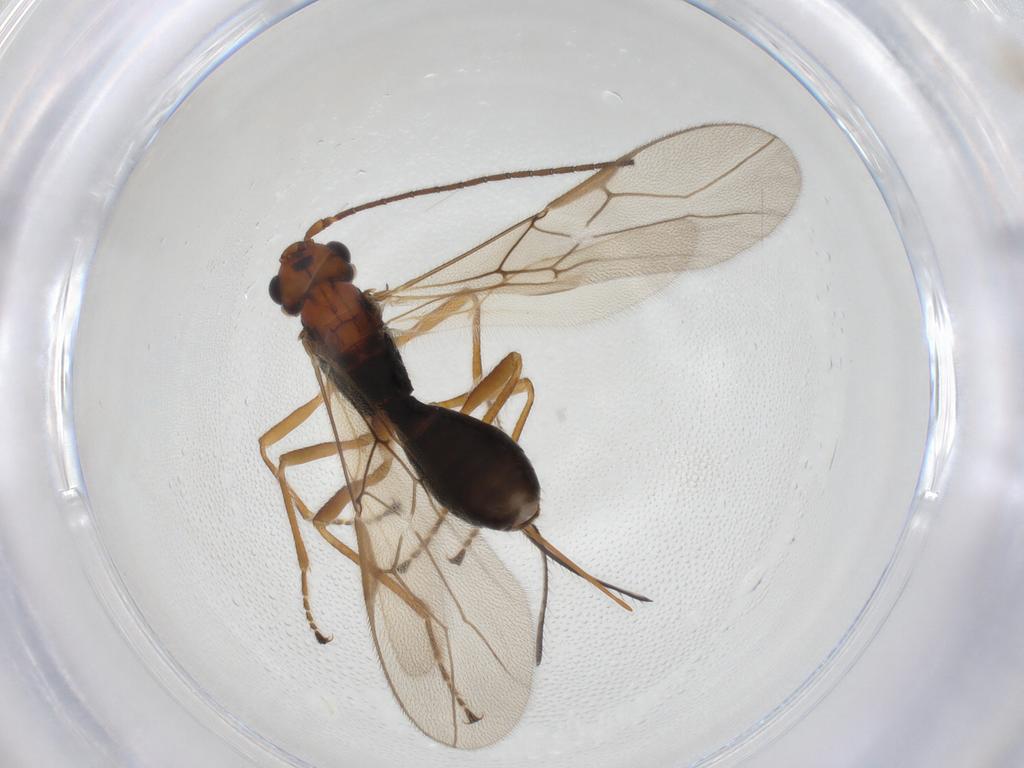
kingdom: Animalia
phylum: Arthropoda
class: Insecta
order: Hymenoptera
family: Braconidae
